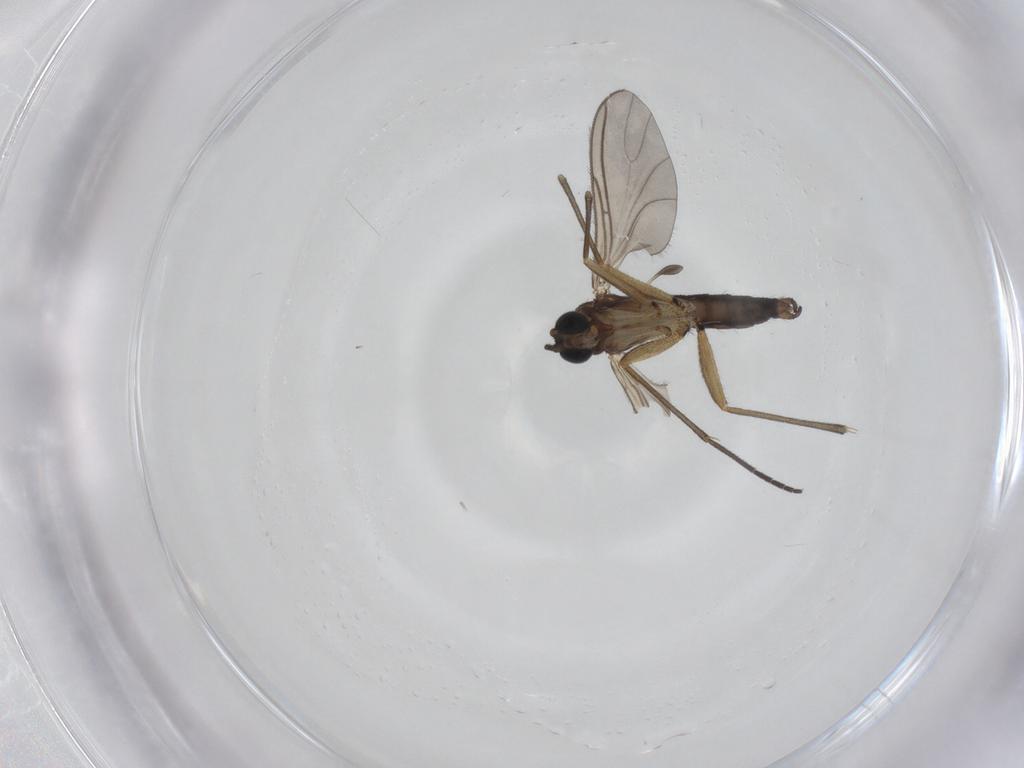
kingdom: Animalia
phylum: Arthropoda
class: Insecta
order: Diptera
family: Sciaridae
